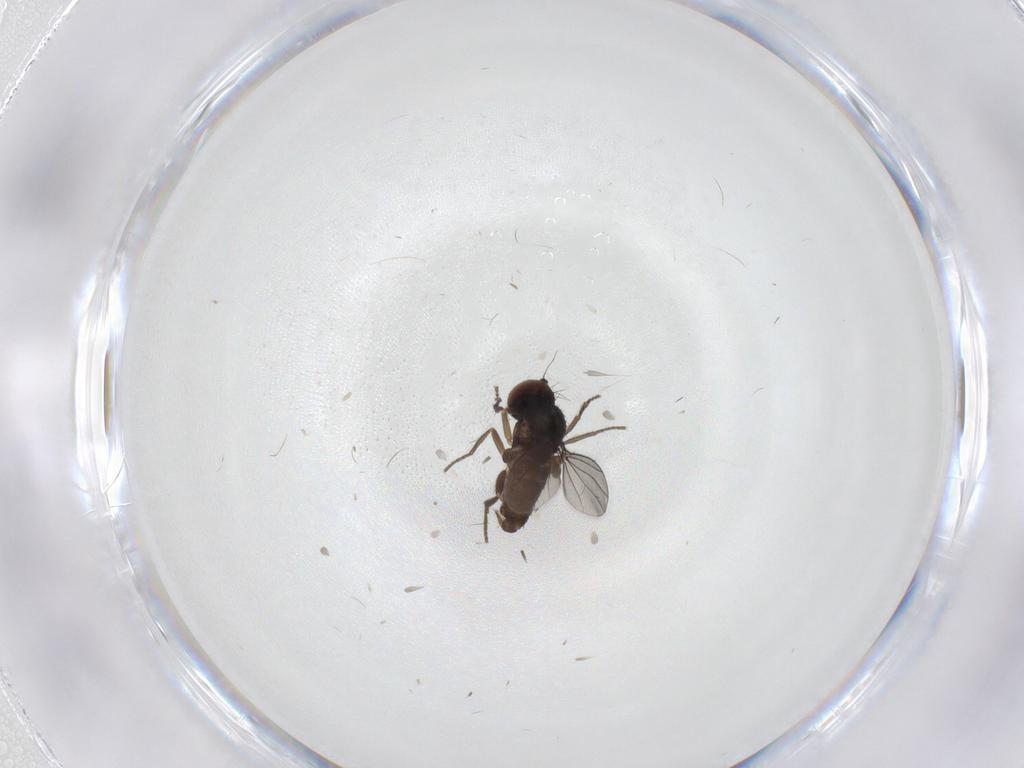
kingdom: Animalia
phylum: Arthropoda
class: Insecta
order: Diptera
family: Dolichopodidae
